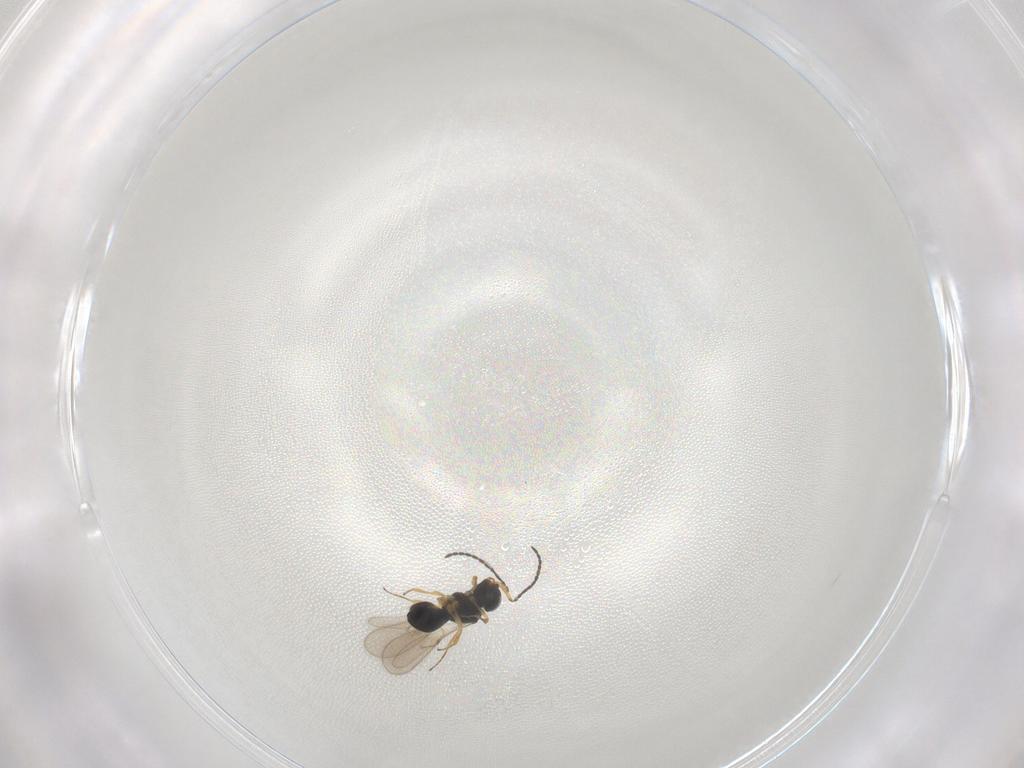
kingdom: Animalia
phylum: Arthropoda
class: Insecta
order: Hymenoptera
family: Scelionidae
